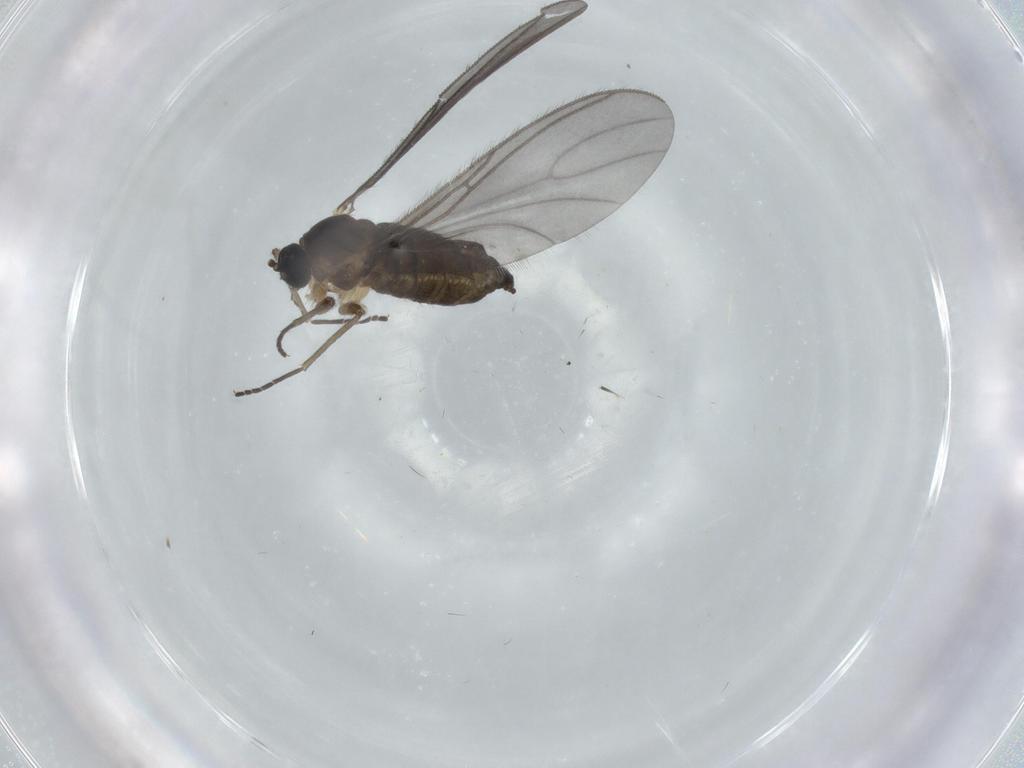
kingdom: Animalia
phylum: Arthropoda
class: Insecta
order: Diptera
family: Sciaridae
